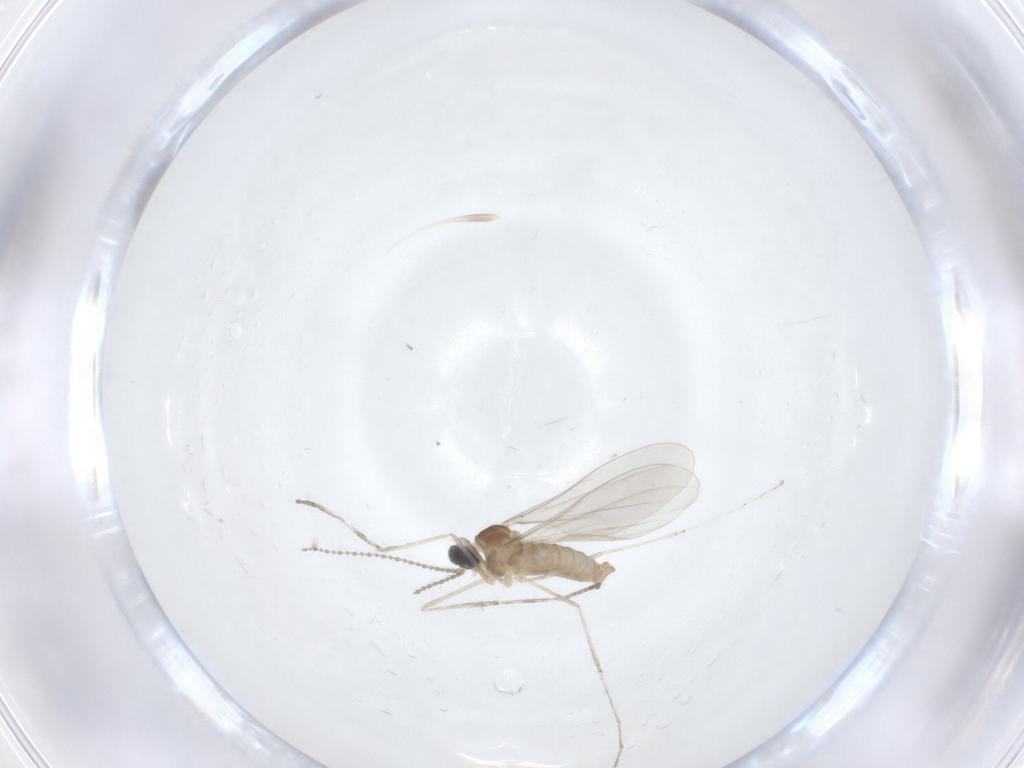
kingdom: Animalia
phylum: Arthropoda
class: Insecta
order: Diptera
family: Cecidomyiidae
